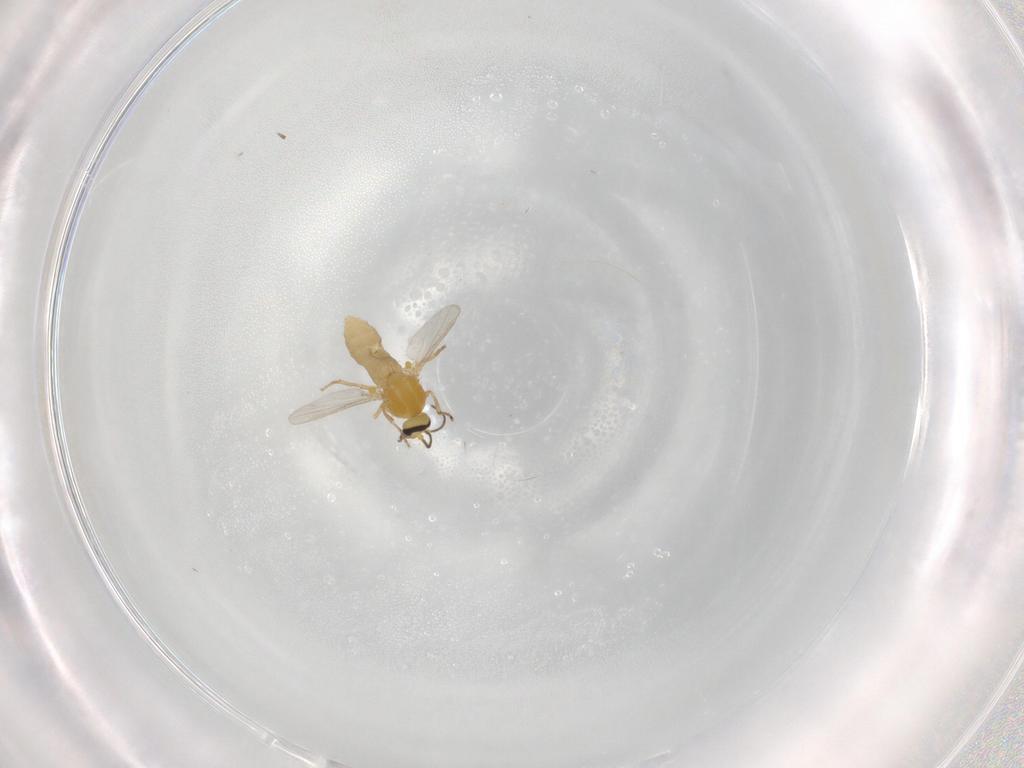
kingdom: Animalia
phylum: Arthropoda
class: Insecta
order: Diptera
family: Ceratopogonidae
